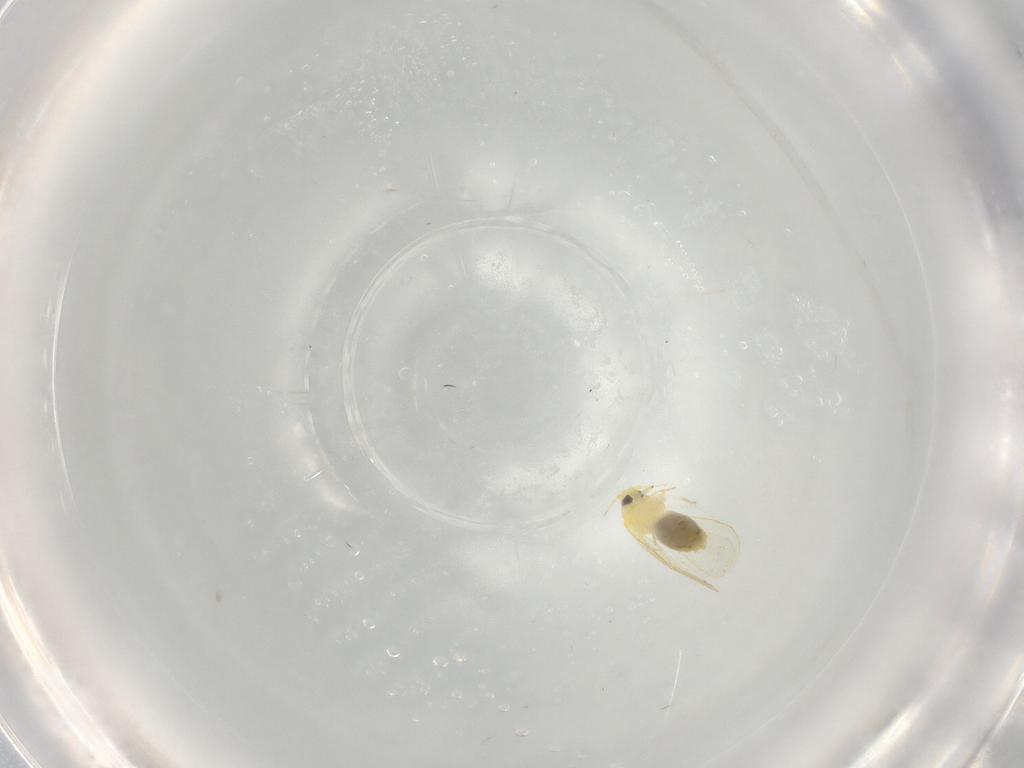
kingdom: Animalia
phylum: Arthropoda
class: Insecta
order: Hemiptera
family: Aleyrodidae
